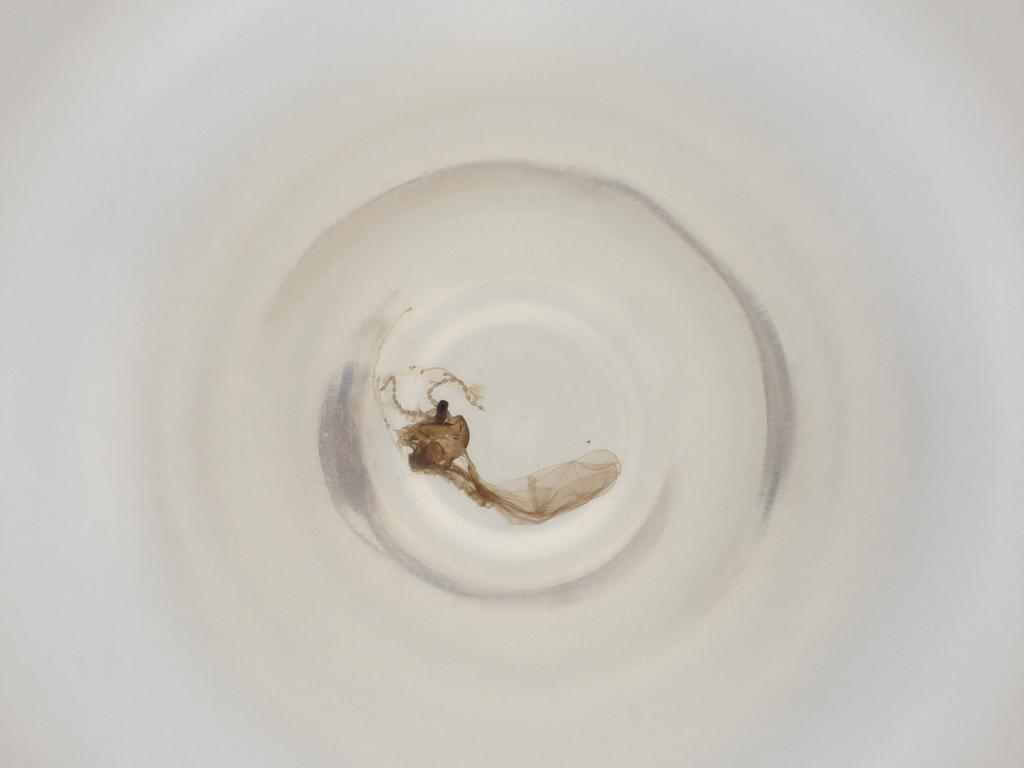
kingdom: Animalia
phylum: Arthropoda
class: Insecta
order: Diptera
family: Cecidomyiidae
